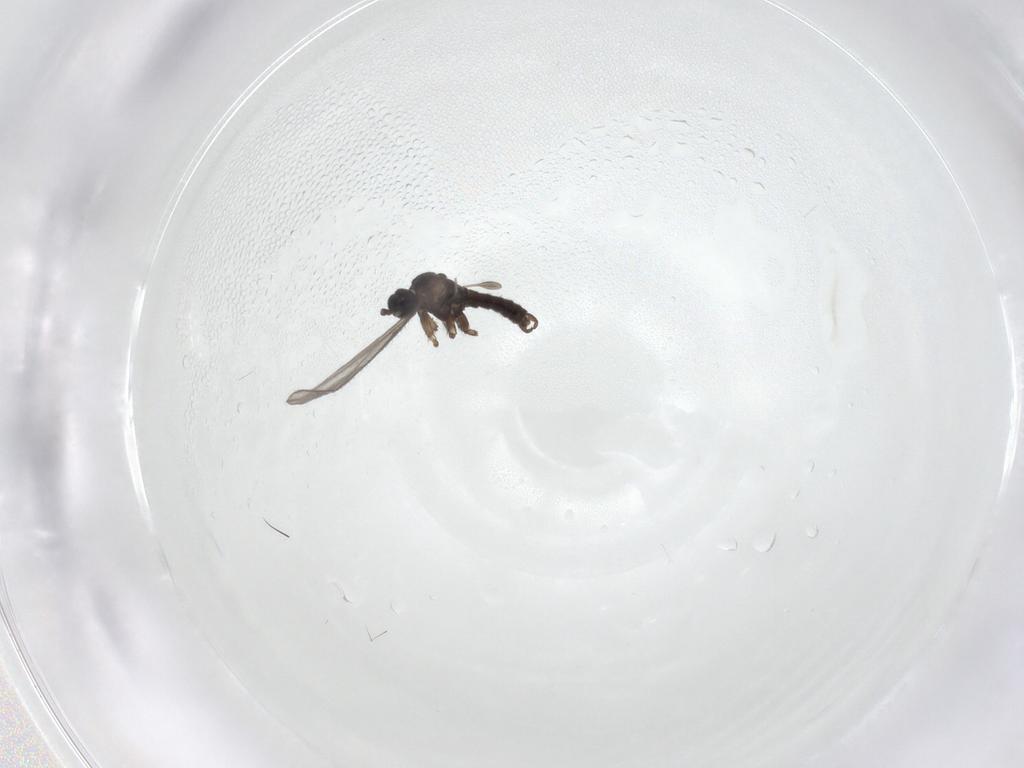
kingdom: Animalia
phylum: Arthropoda
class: Insecta
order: Diptera
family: Sciaridae
